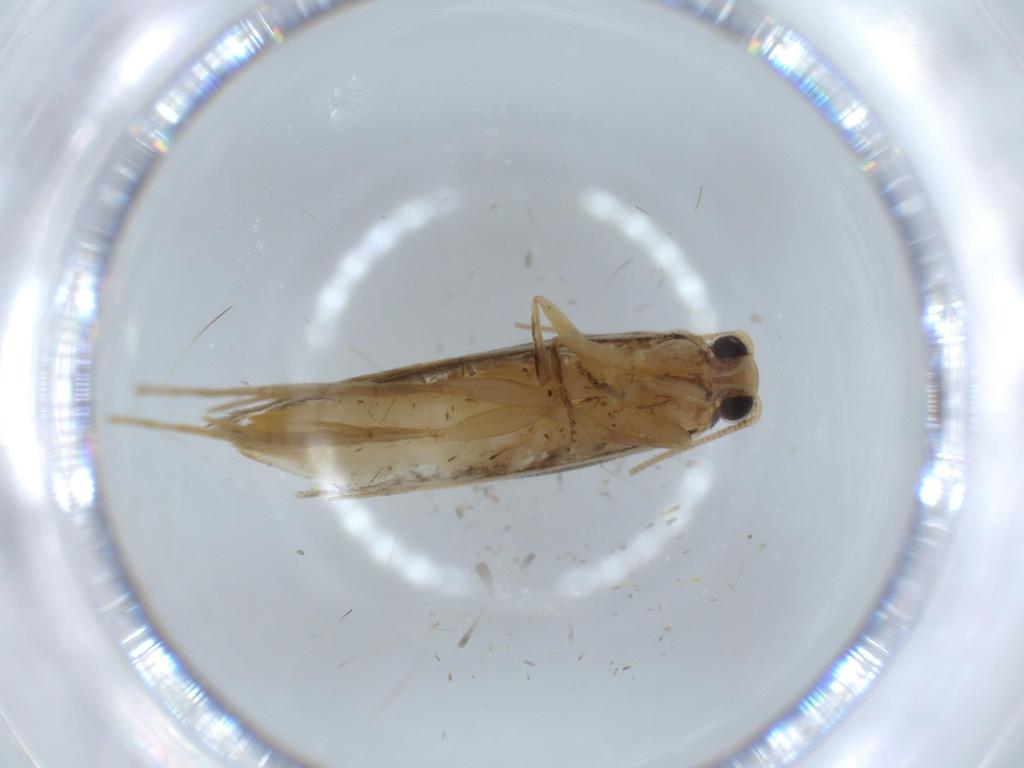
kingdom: Animalia
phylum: Arthropoda
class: Insecta
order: Lepidoptera
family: Tineidae
